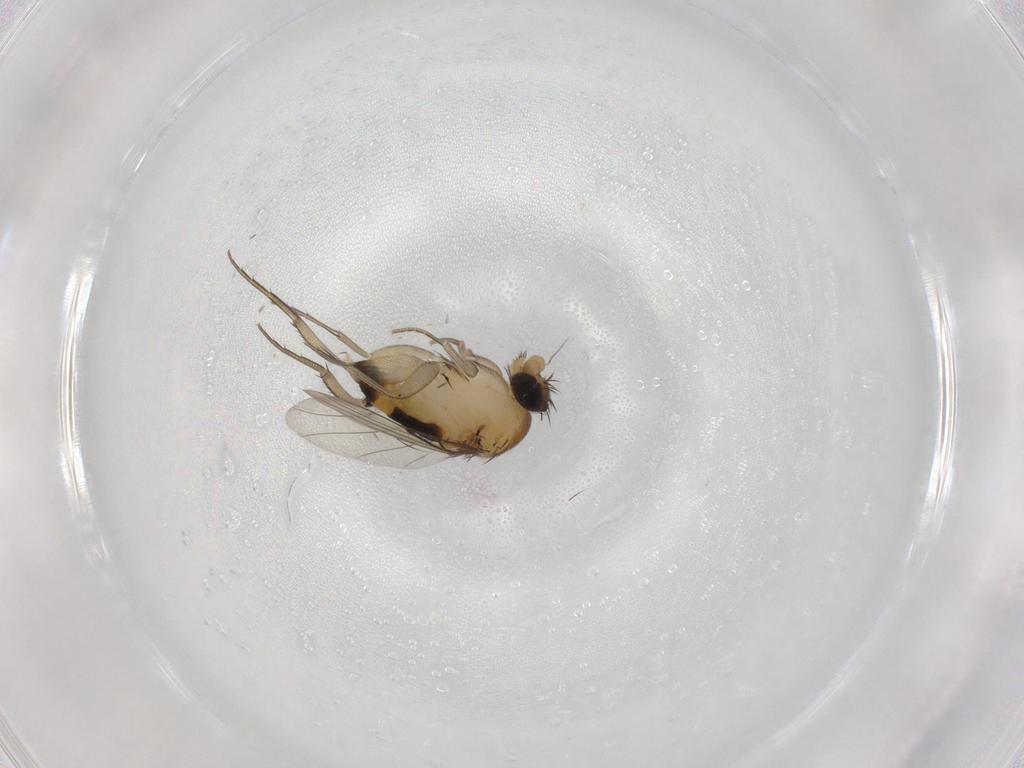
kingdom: Animalia
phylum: Arthropoda
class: Insecta
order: Diptera
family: Phoridae
